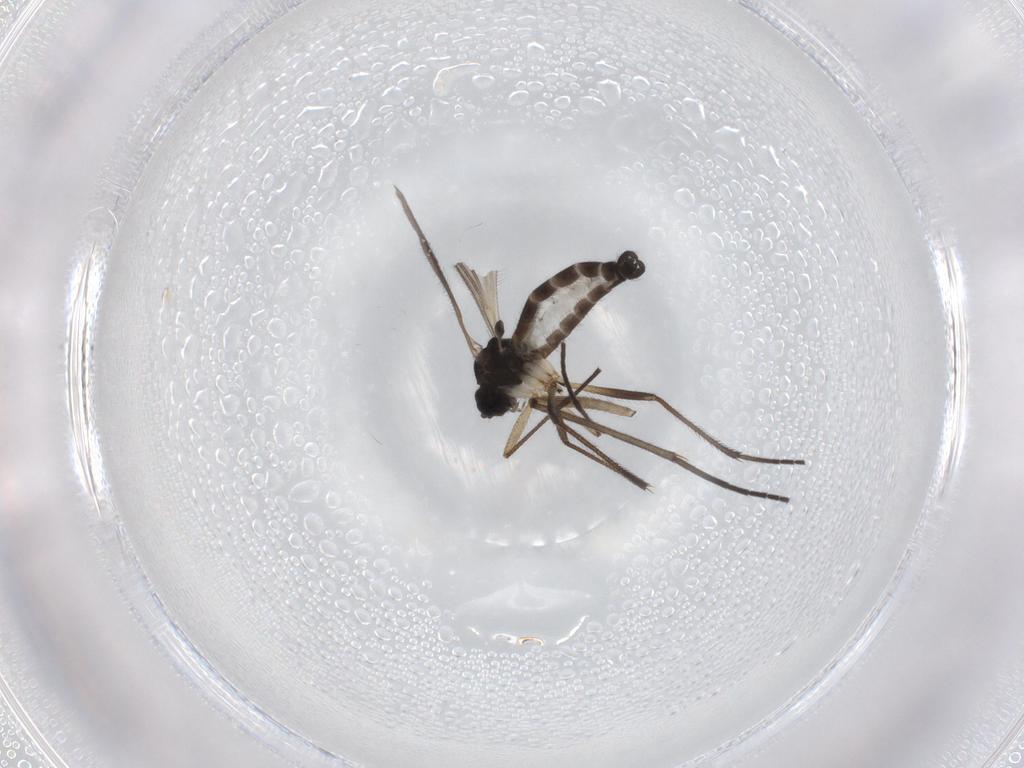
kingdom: Animalia
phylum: Arthropoda
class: Insecta
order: Diptera
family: Sciaridae
